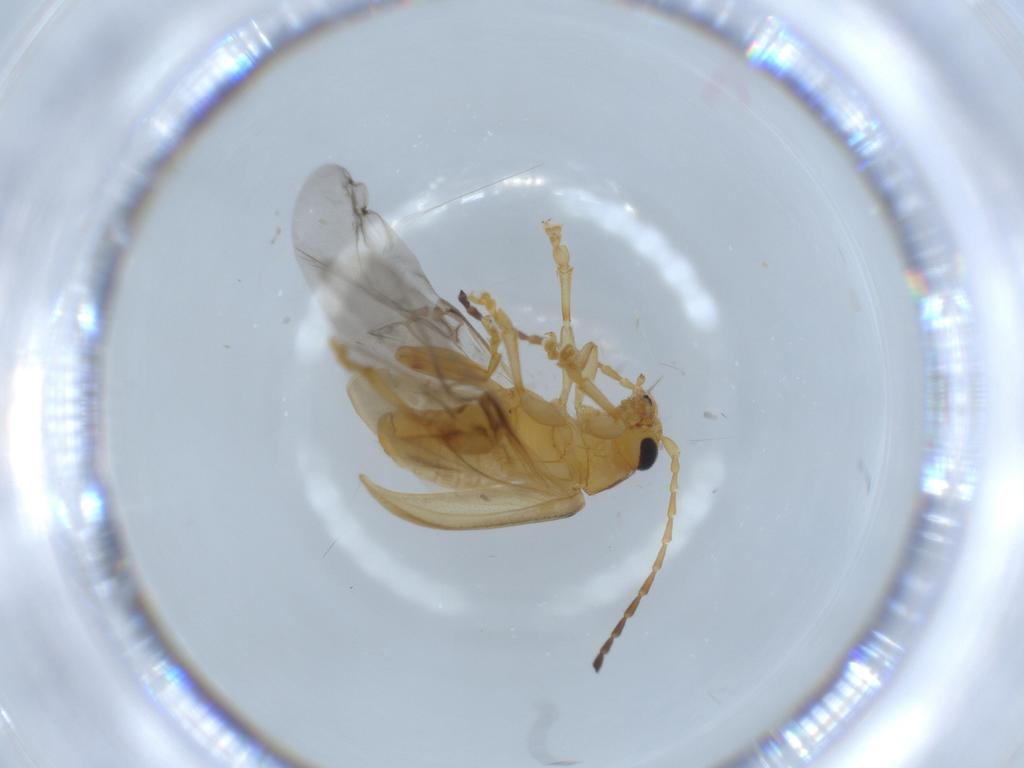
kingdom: Animalia
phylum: Arthropoda
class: Insecta
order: Coleoptera
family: Chrysomelidae
